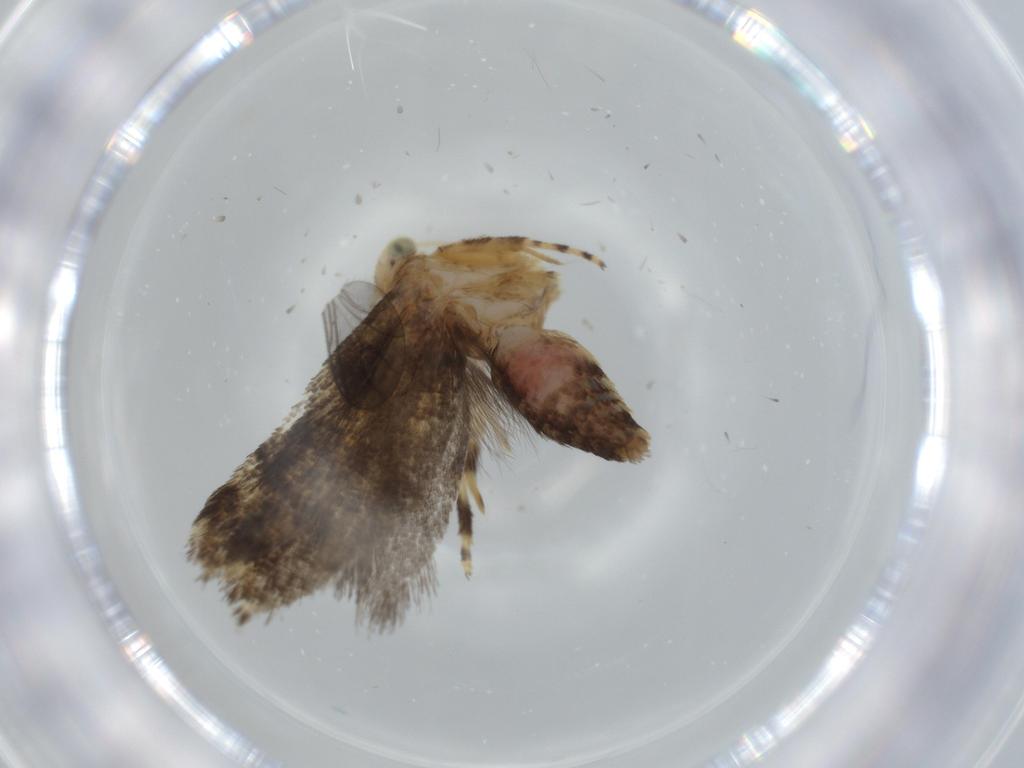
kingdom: Animalia
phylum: Arthropoda
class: Insecta
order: Lepidoptera
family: Glyphipterigidae
